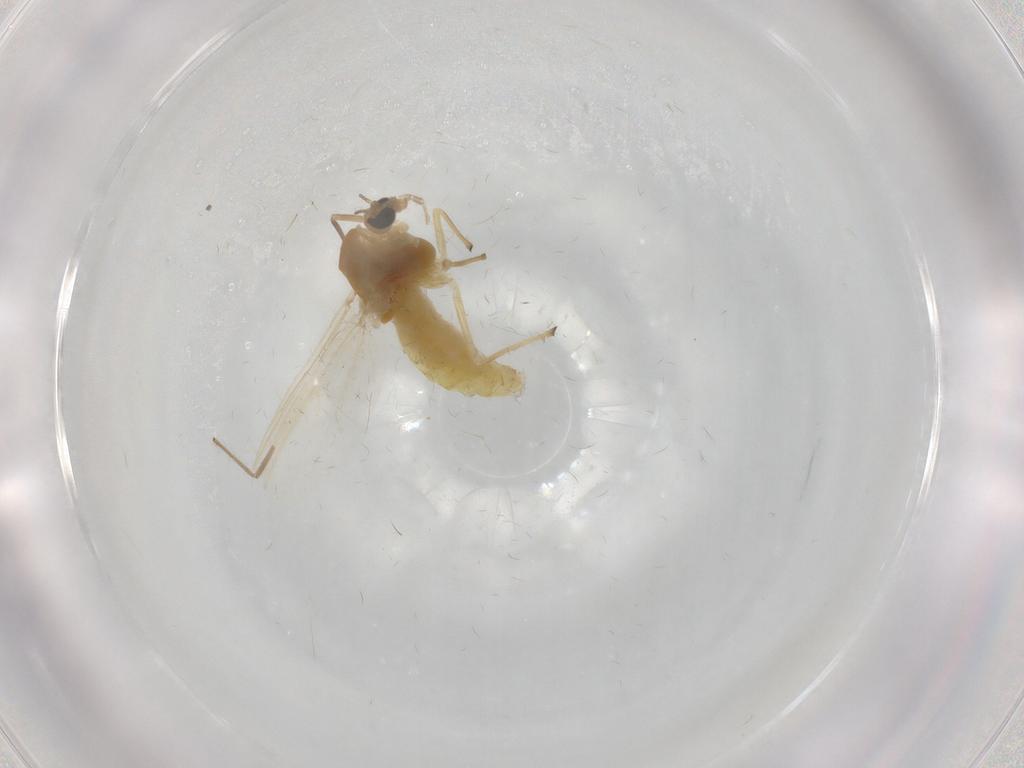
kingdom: Animalia
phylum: Arthropoda
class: Insecta
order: Diptera
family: Chironomidae
